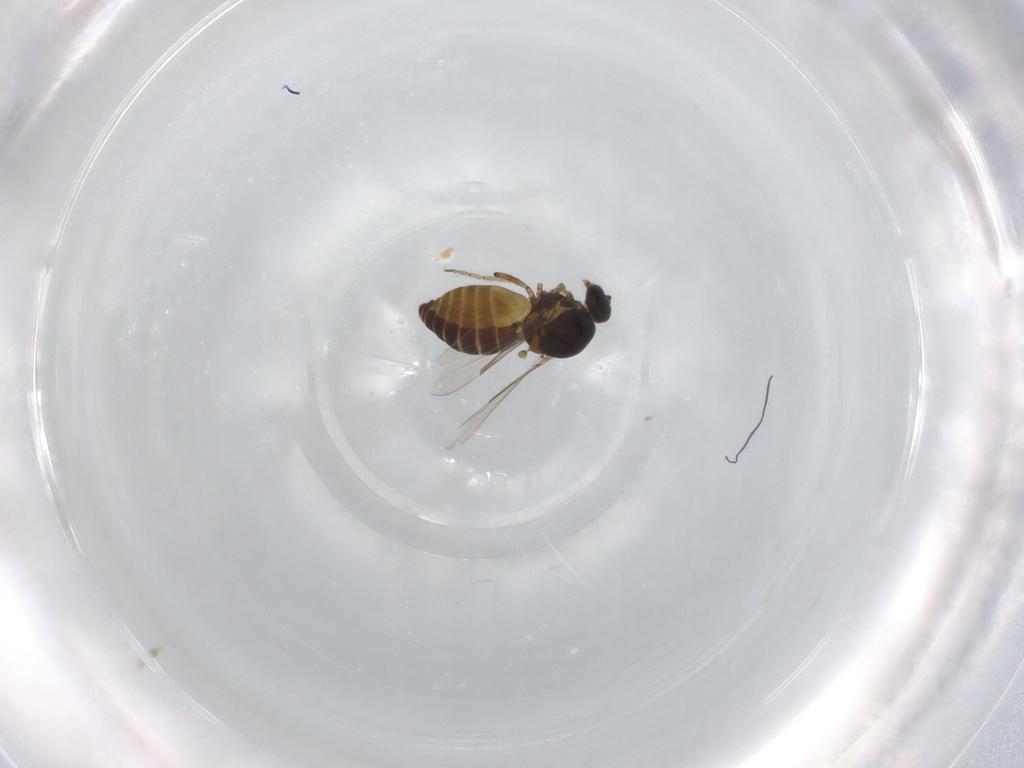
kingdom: Animalia
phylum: Arthropoda
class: Insecta
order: Diptera
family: Ceratopogonidae
